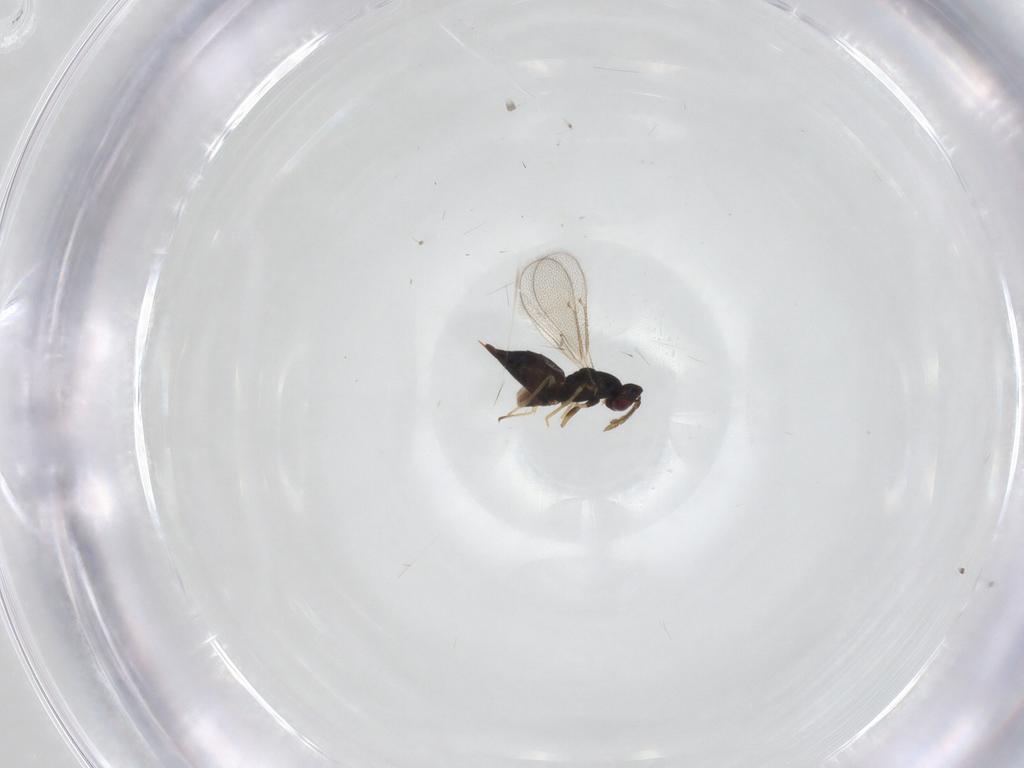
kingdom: Animalia
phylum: Arthropoda
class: Insecta
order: Hymenoptera
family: Eulophidae
